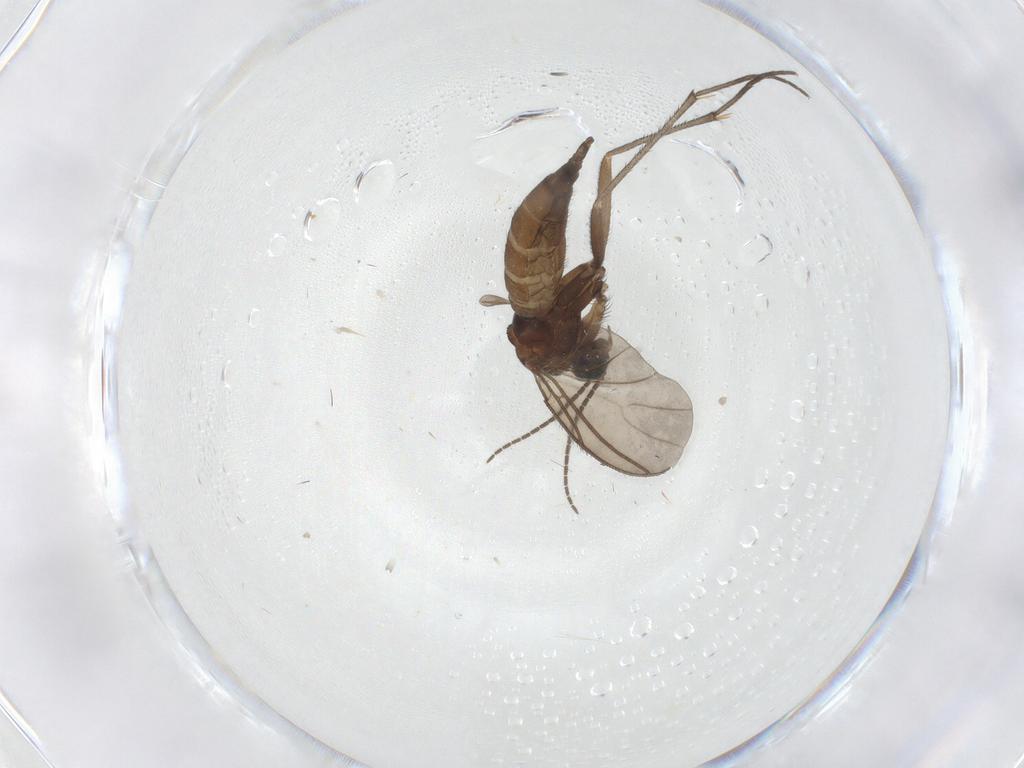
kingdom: Animalia
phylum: Arthropoda
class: Insecta
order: Diptera
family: Sciaridae
